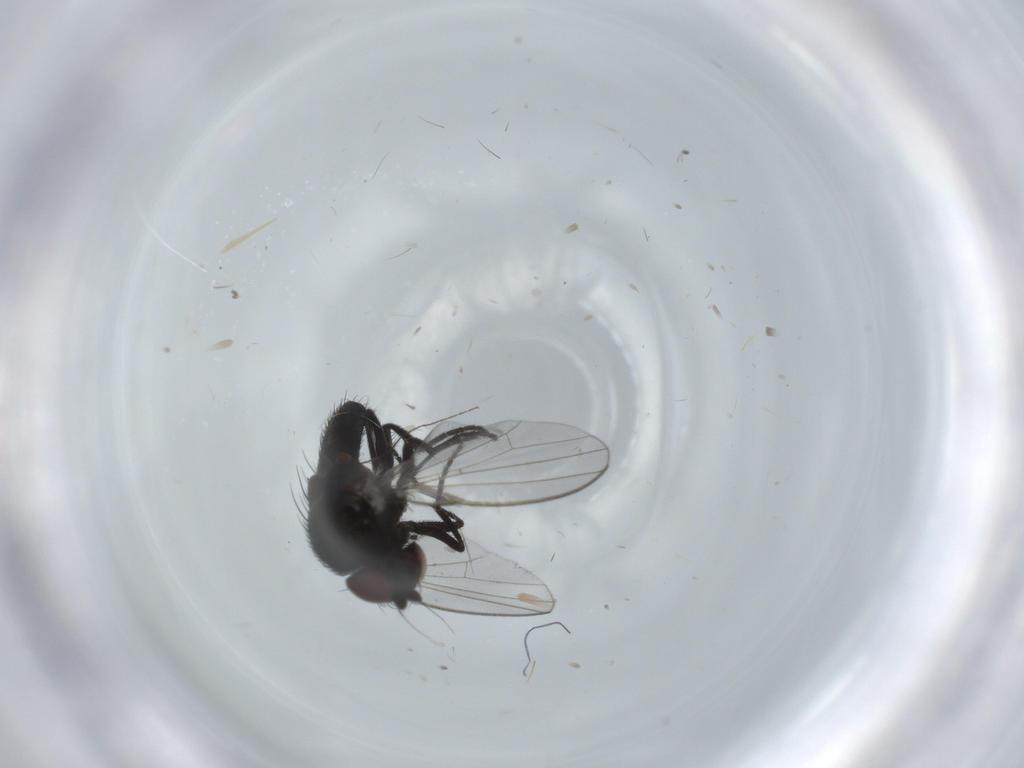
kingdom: Animalia
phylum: Arthropoda
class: Insecta
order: Diptera
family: Milichiidae
